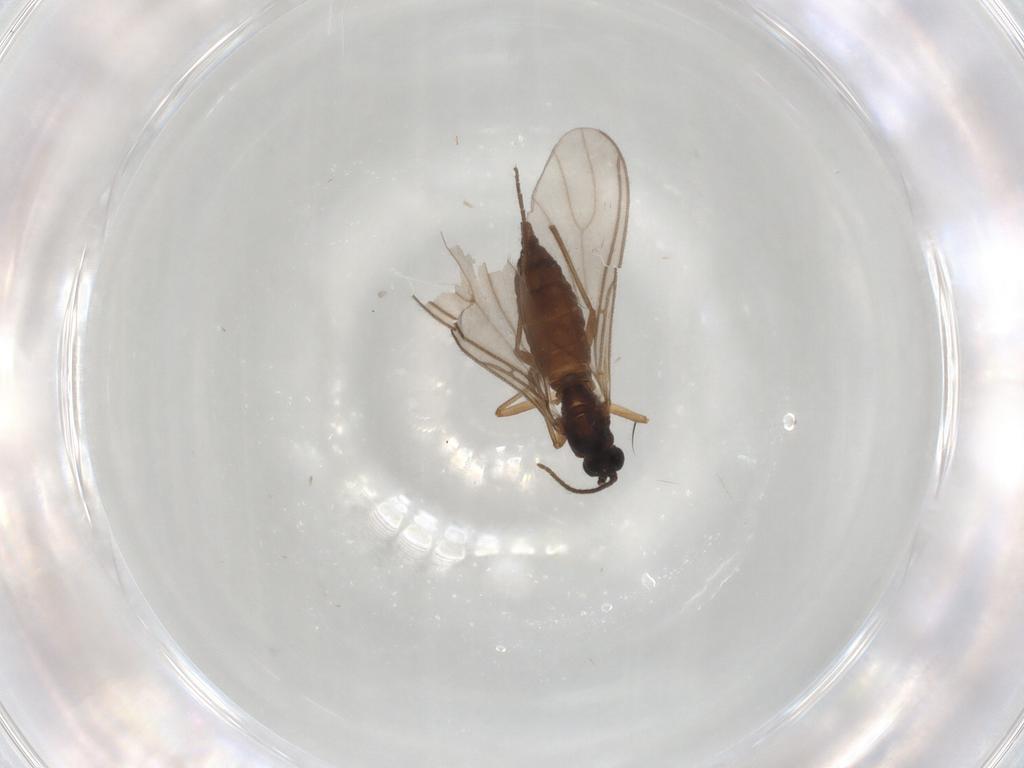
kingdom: Animalia
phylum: Arthropoda
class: Insecta
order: Diptera
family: Sciaridae
